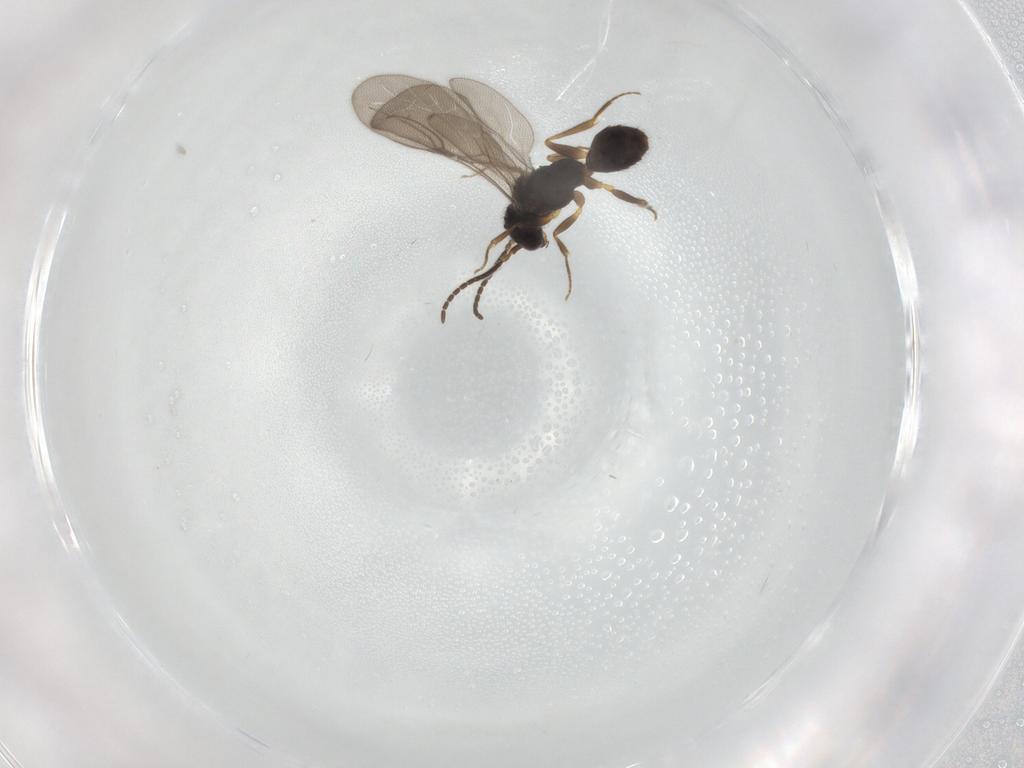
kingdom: Animalia
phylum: Arthropoda
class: Insecta
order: Hymenoptera
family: Bethylidae
